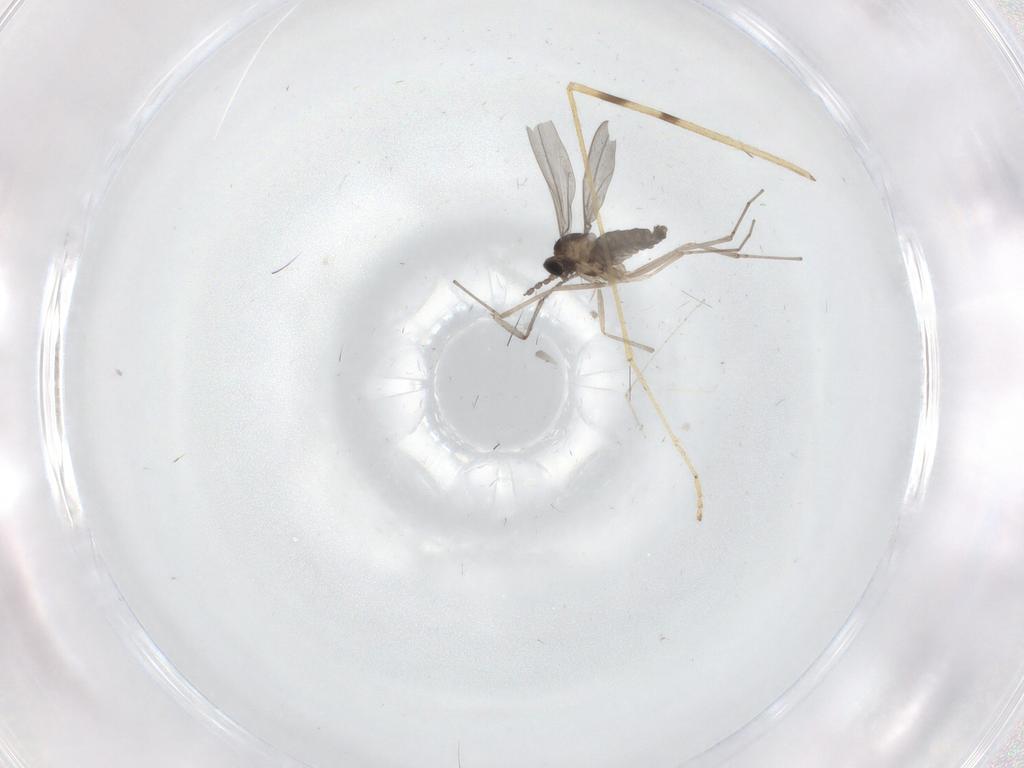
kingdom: Animalia
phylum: Arthropoda
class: Insecta
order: Diptera
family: Cecidomyiidae
